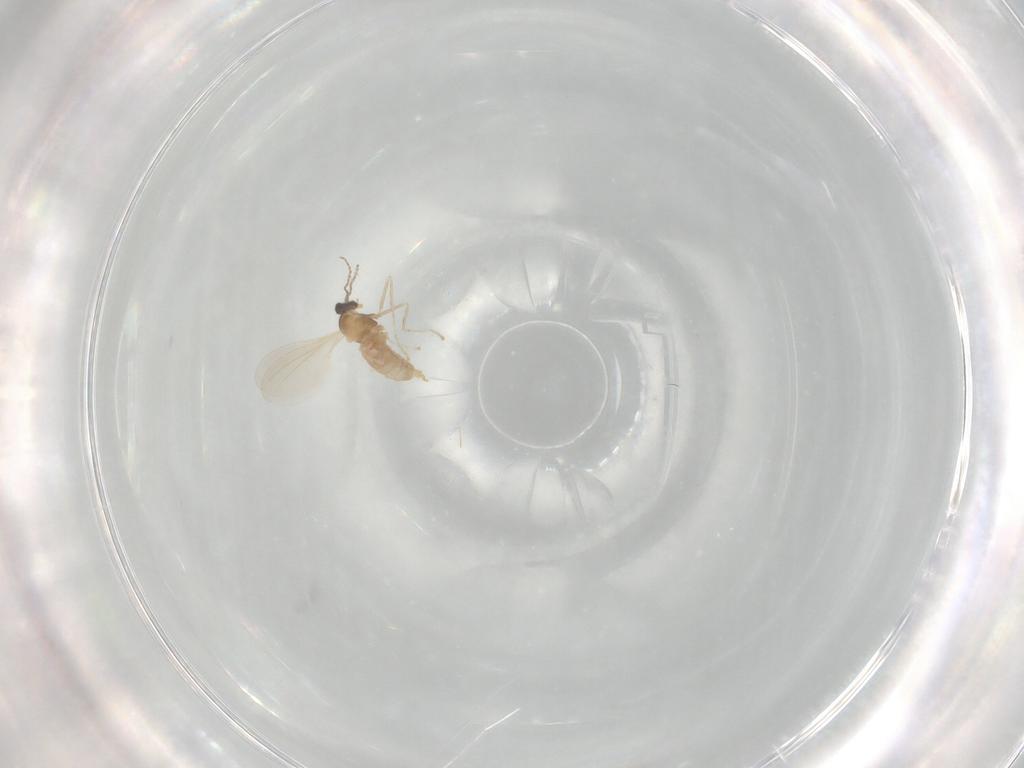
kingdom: Animalia
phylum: Arthropoda
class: Insecta
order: Diptera
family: Cecidomyiidae
